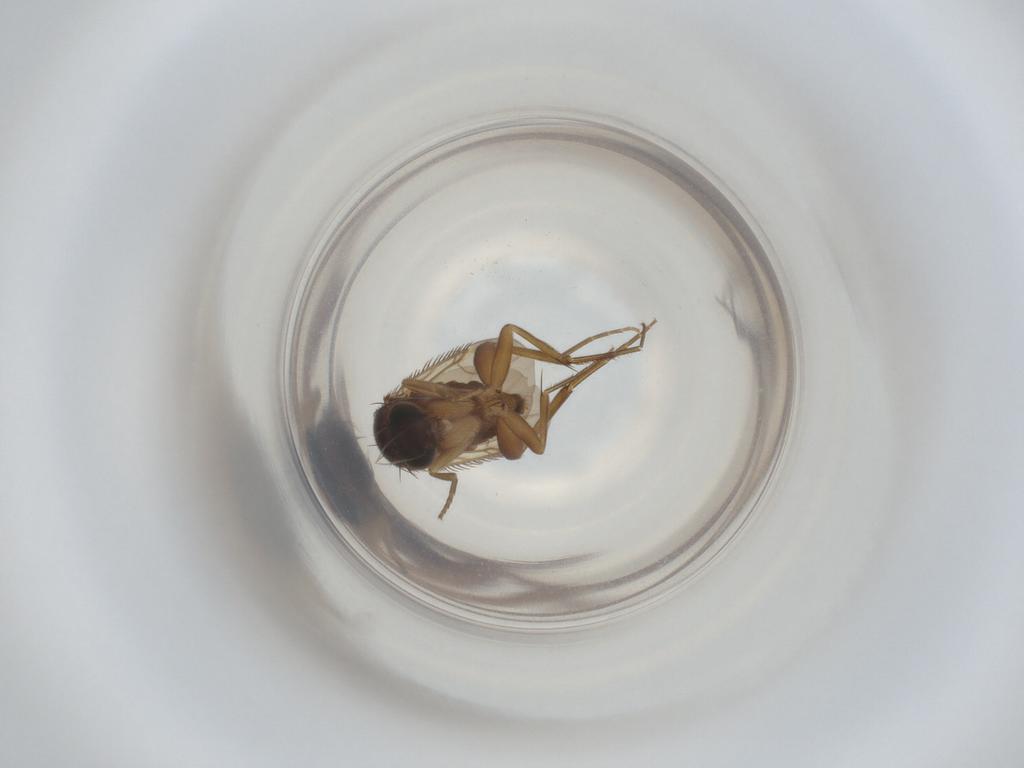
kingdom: Animalia
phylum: Arthropoda
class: Insecta
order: Diptera
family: Phoridae
